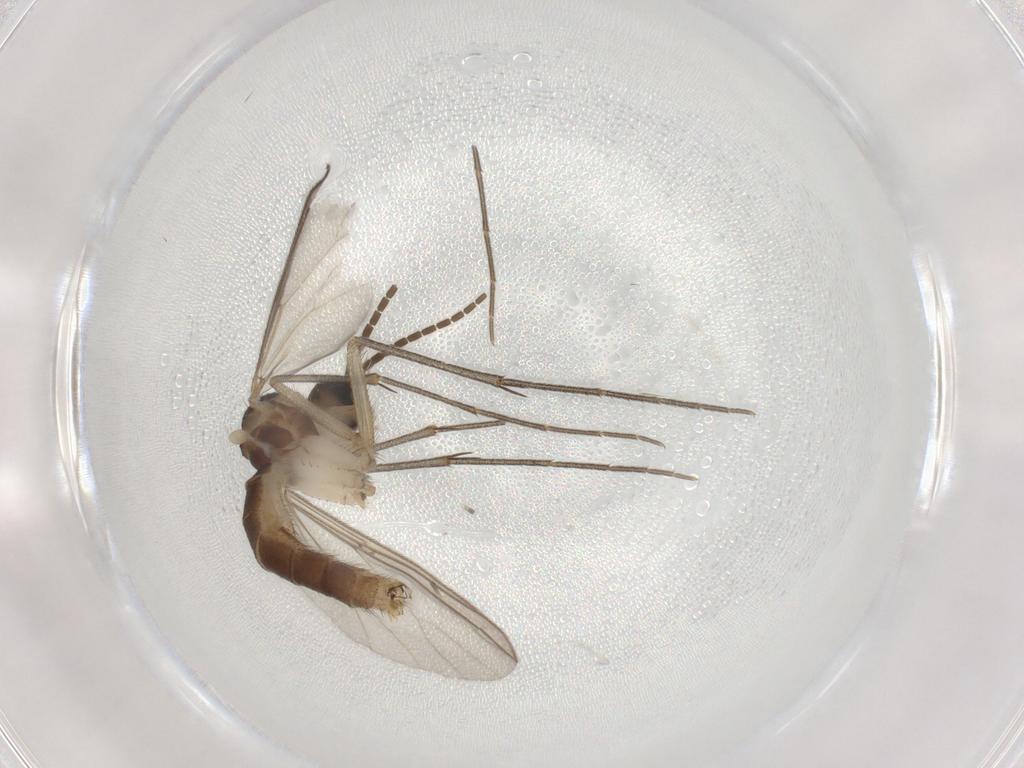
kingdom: Animalia
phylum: Arthropoda
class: Insecta
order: Diptera
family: Mycetophilidae
